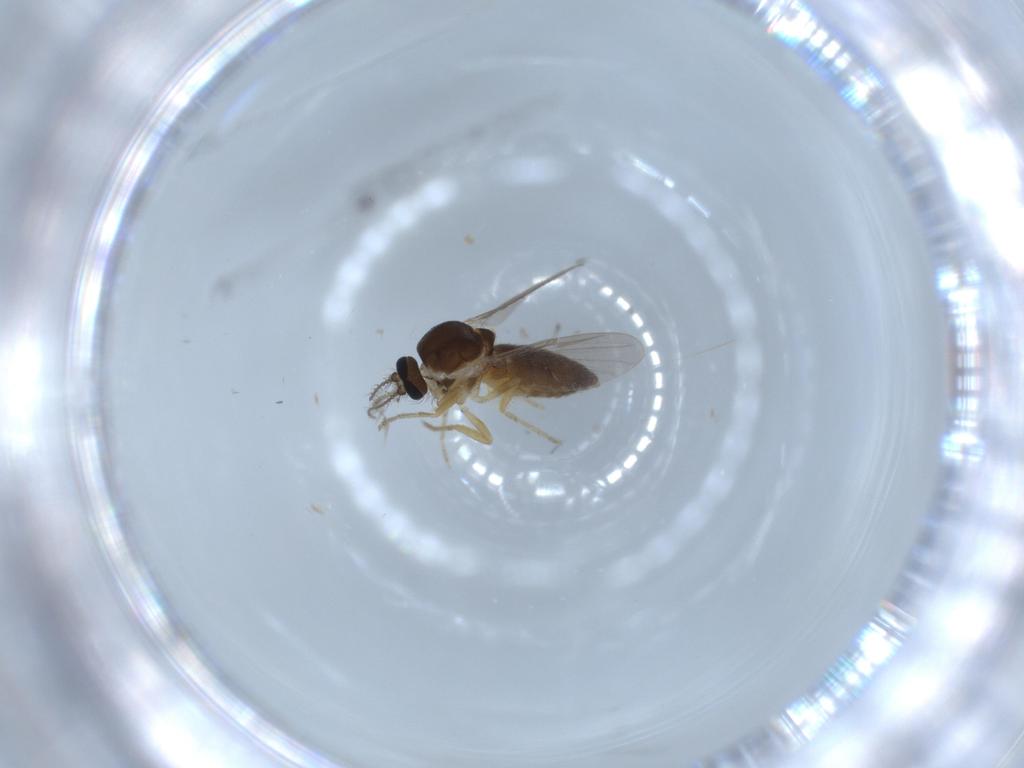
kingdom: Animalia
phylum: Arthropoda
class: Insecta
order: Diptera
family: Ceratopogonidae
